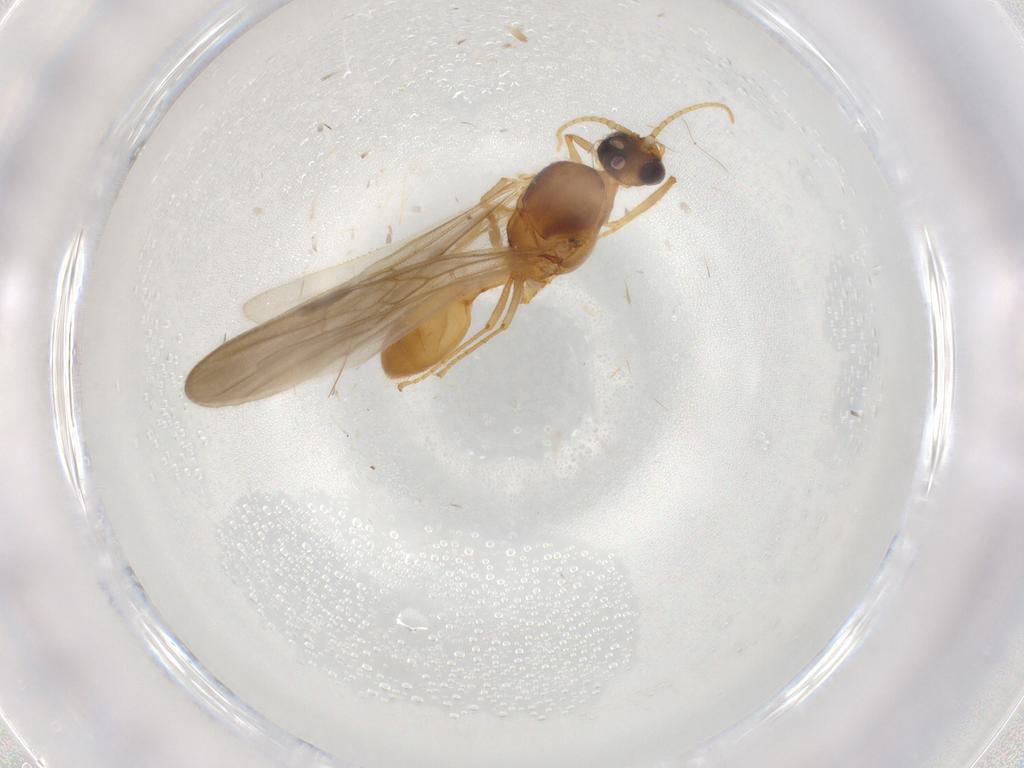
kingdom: Animalia
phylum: Arthropoda
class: Insecta
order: Hymenoptera
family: Formicidae
